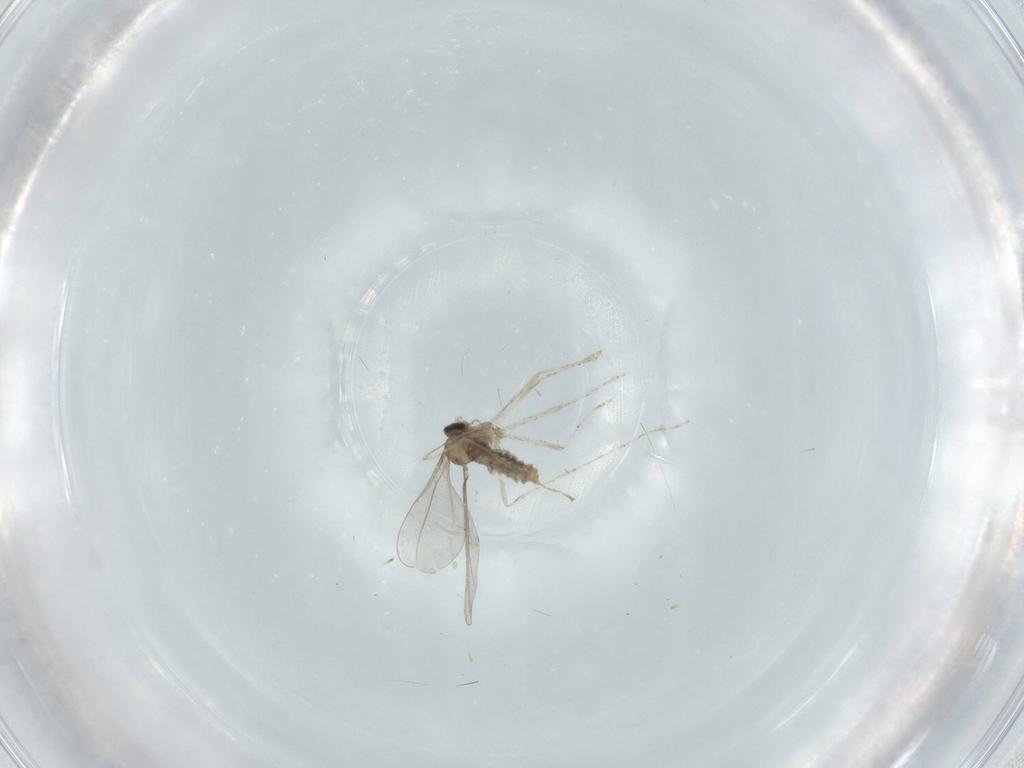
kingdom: Animalia
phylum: Arthropoda
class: Insecta
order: Diptera
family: Cecidomyiidae
